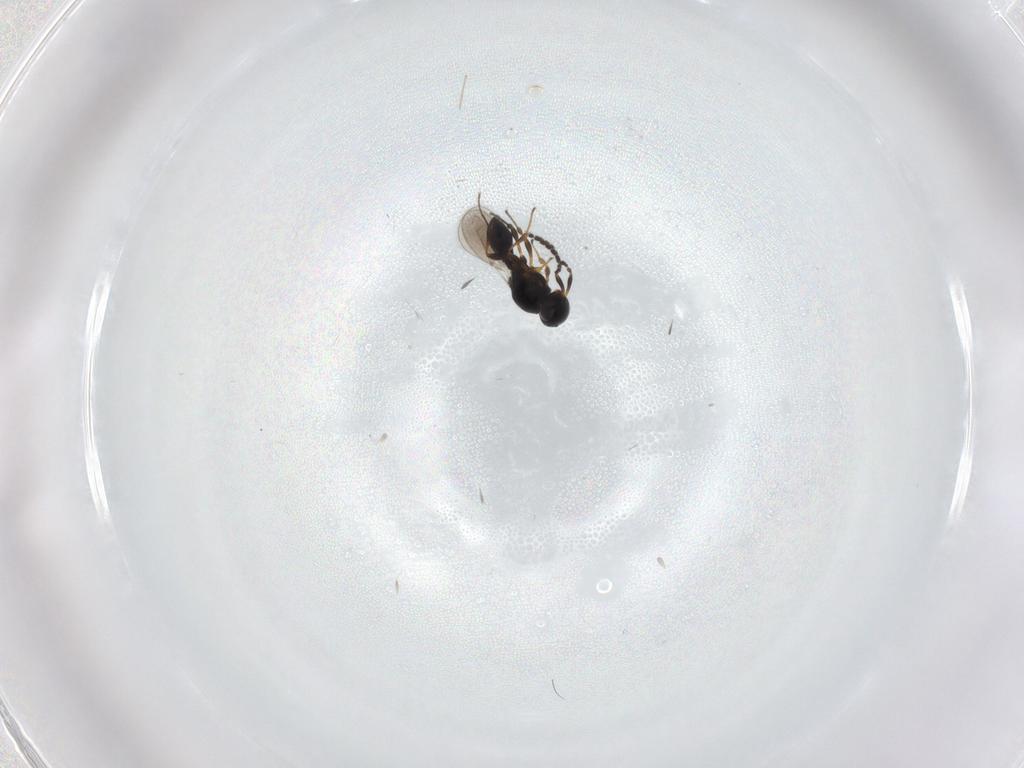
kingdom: Animalia
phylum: Arthropoda
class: Insecta
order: Hymenoptera
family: Platygastridae
